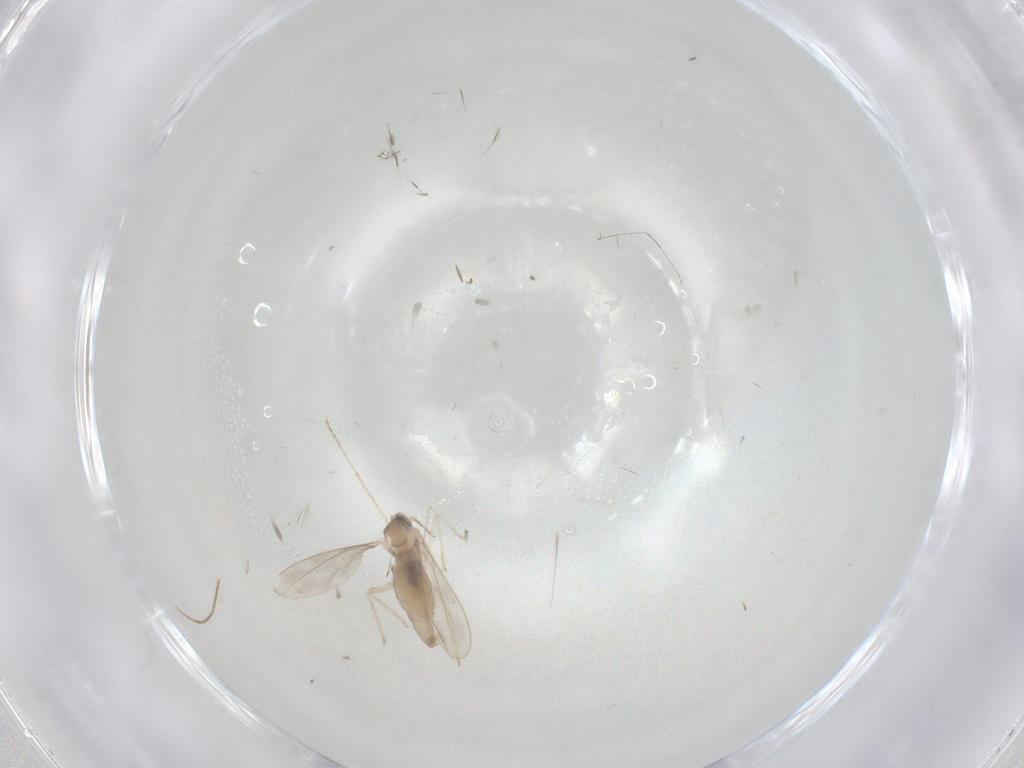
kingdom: Animalia
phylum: Arthropoda
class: Insecta
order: Diptera
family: Cecidomyiidae
